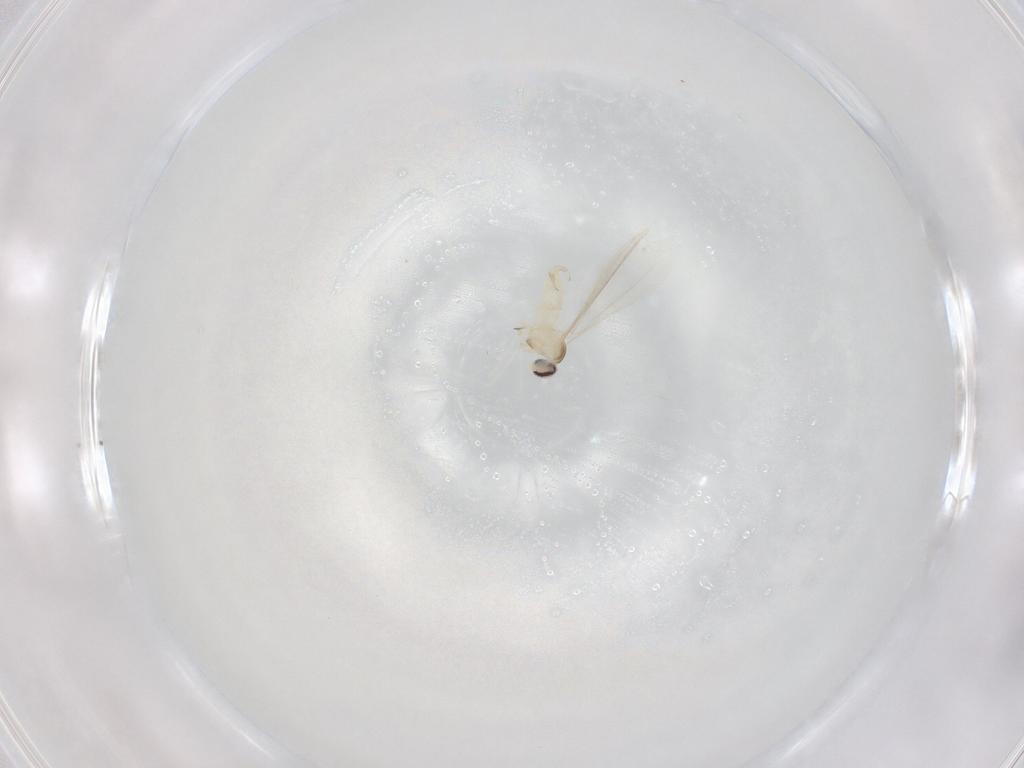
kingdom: Animalia
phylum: Arthropoda
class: Insecta
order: Diptera
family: Cecidomyiidae
